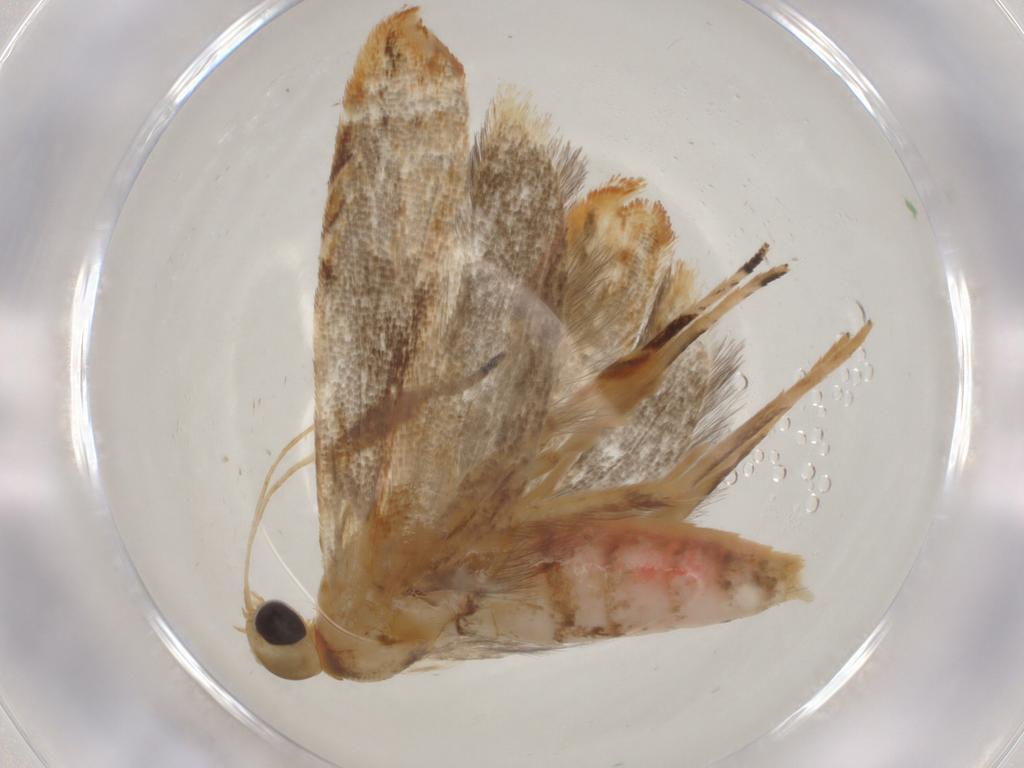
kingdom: Animalia
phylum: Arthropoda
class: Insecta
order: Lepidoptera
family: Gelechiidae
